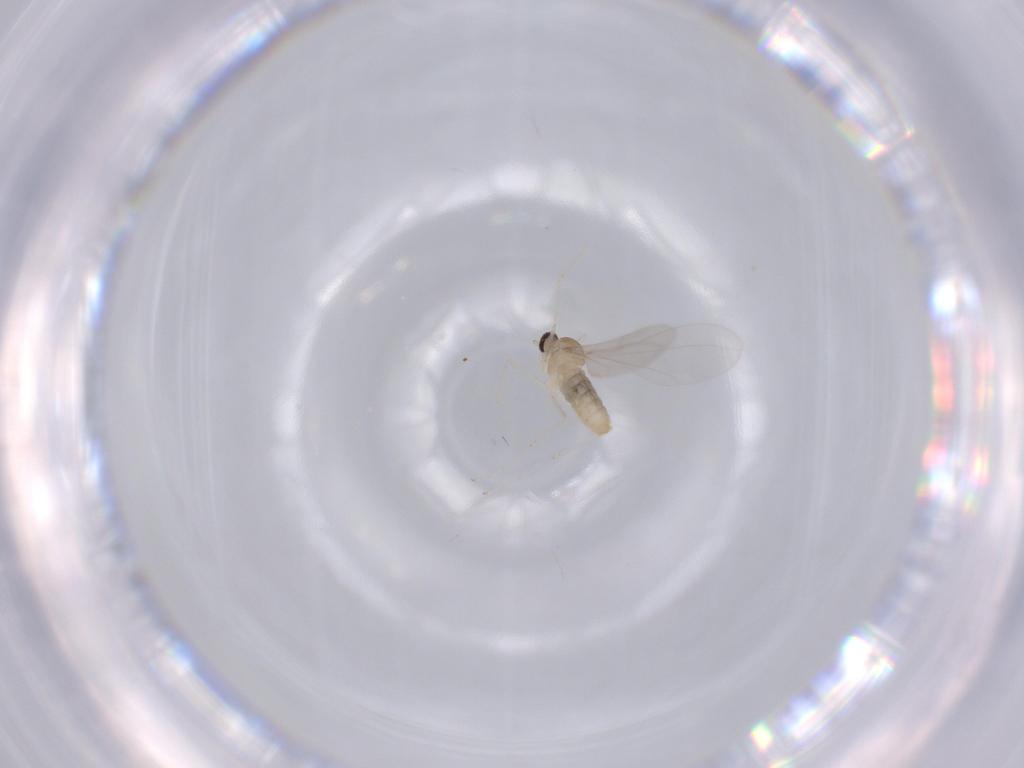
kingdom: Animalia
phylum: Arthropoda
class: Insecta
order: Diptera
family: Cecidomyiidae
